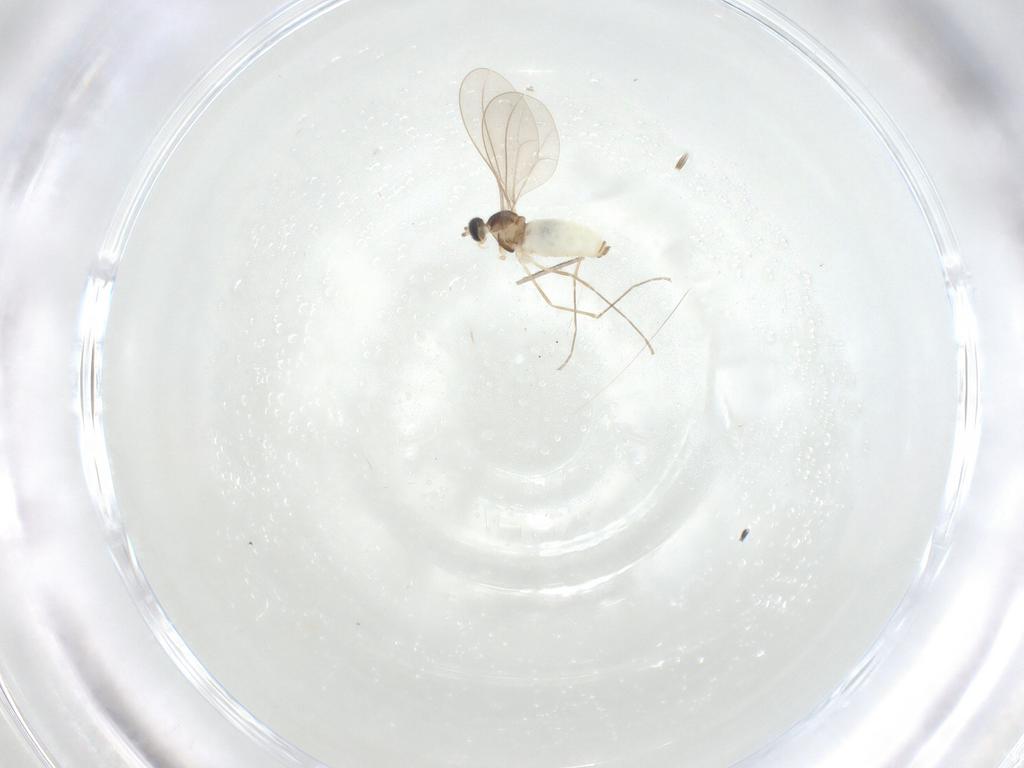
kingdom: Animalia
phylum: Arthropoda
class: Insecta
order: Diptera
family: Cecidomyiidae
